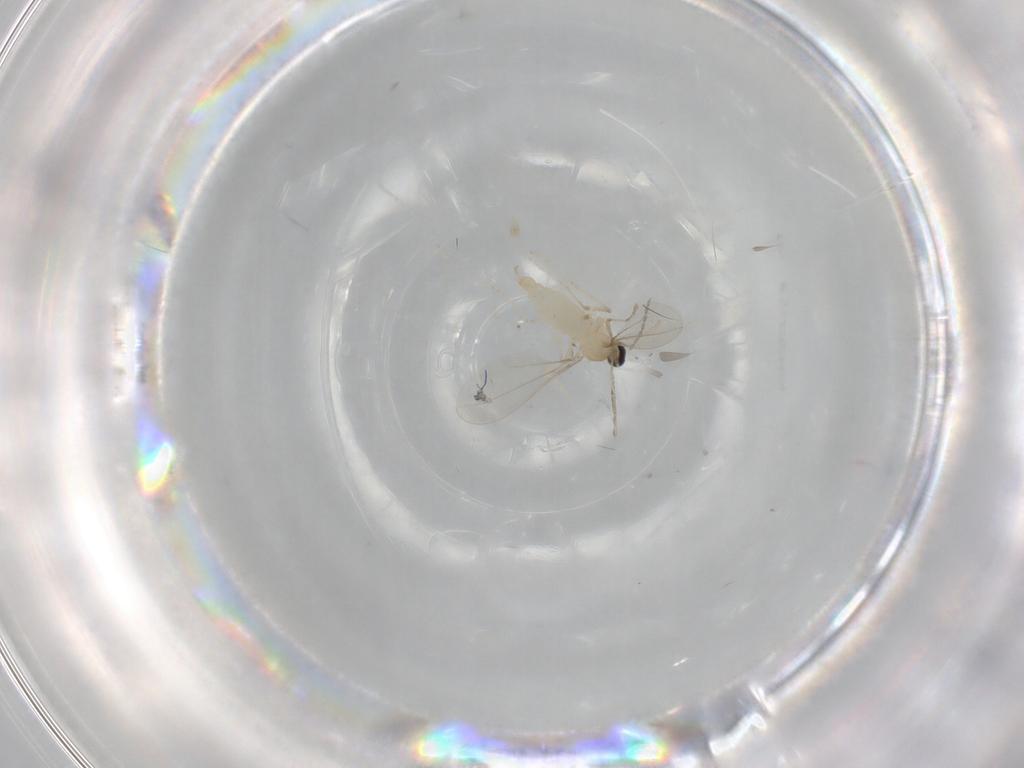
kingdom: Animalia
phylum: Arthropoda
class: Insecta
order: Diptera
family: Cecidomyiidae
